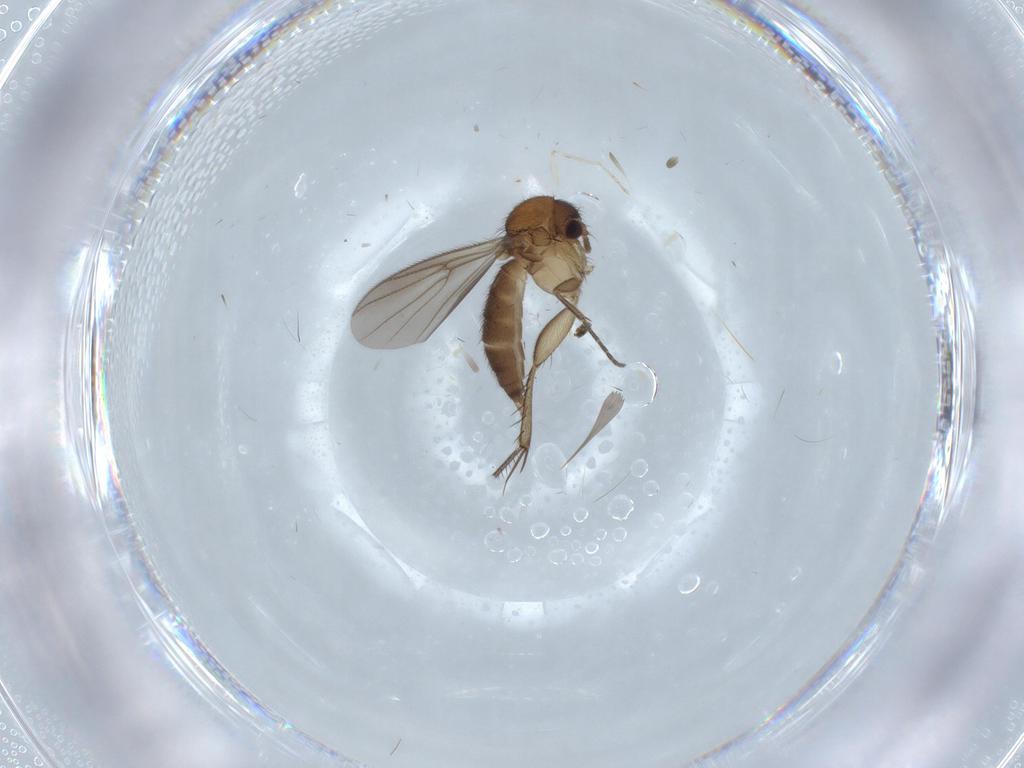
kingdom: Animalia
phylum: Arthropoda
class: Insecta
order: Diptera
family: Mycetophilidae
